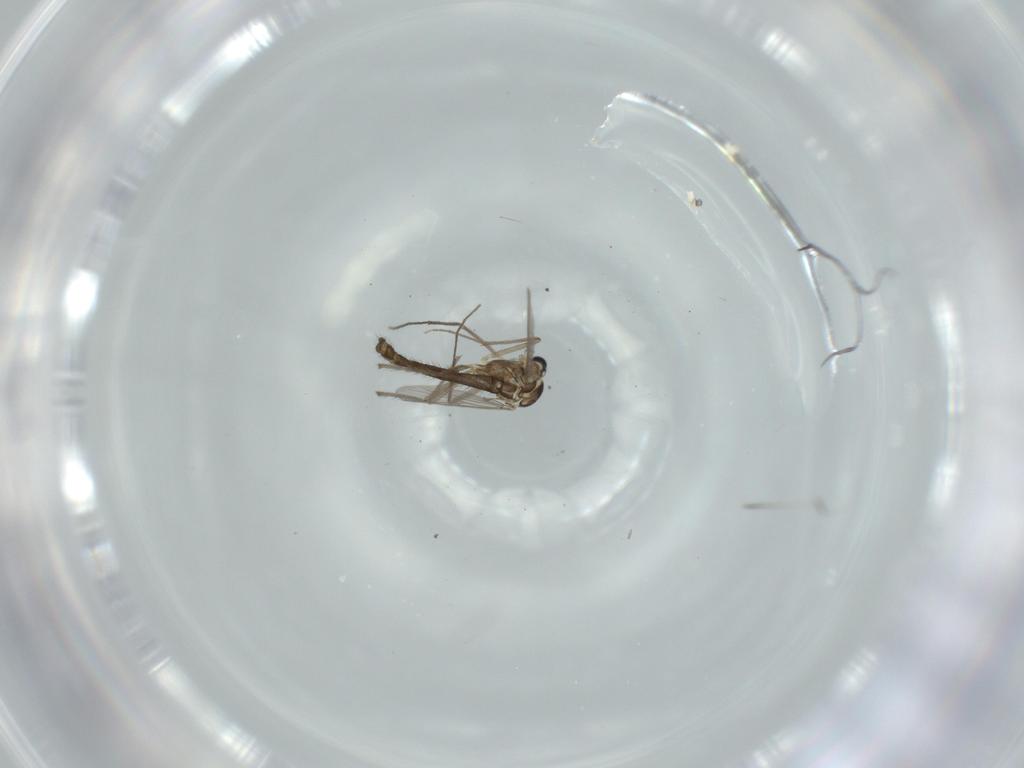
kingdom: Animalia
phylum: Arthropoda
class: Insecta
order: Diptera
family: Chironomidae
